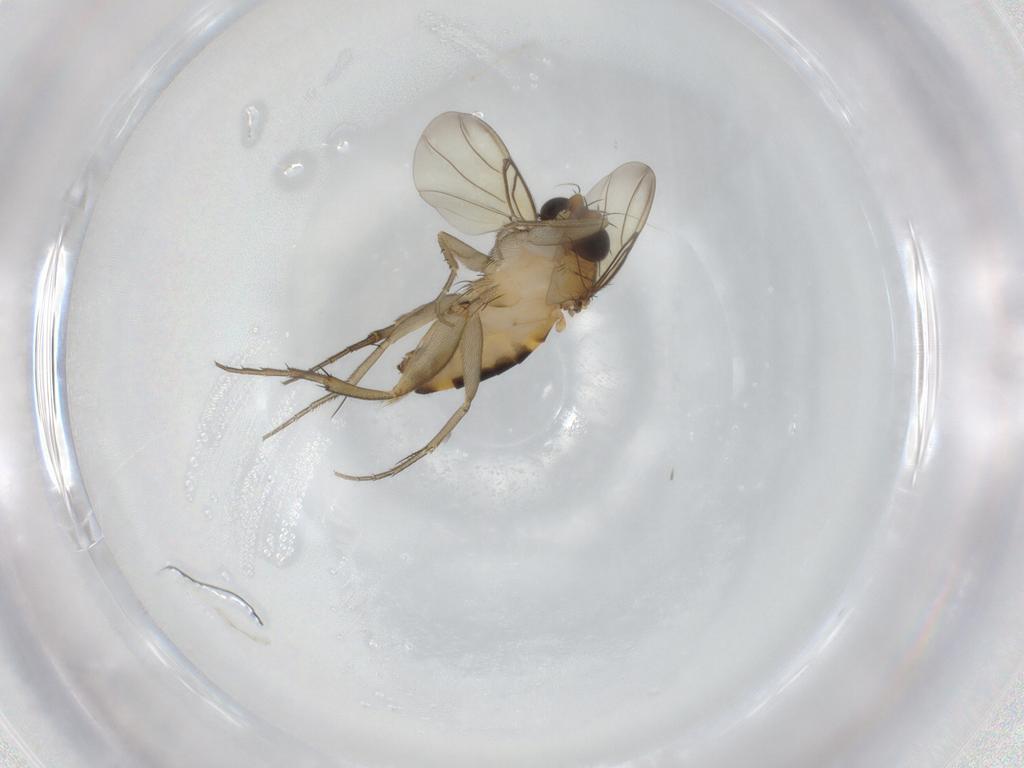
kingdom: Animalia
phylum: Arthropoda
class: Insecta
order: Diptera
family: Phoridae
